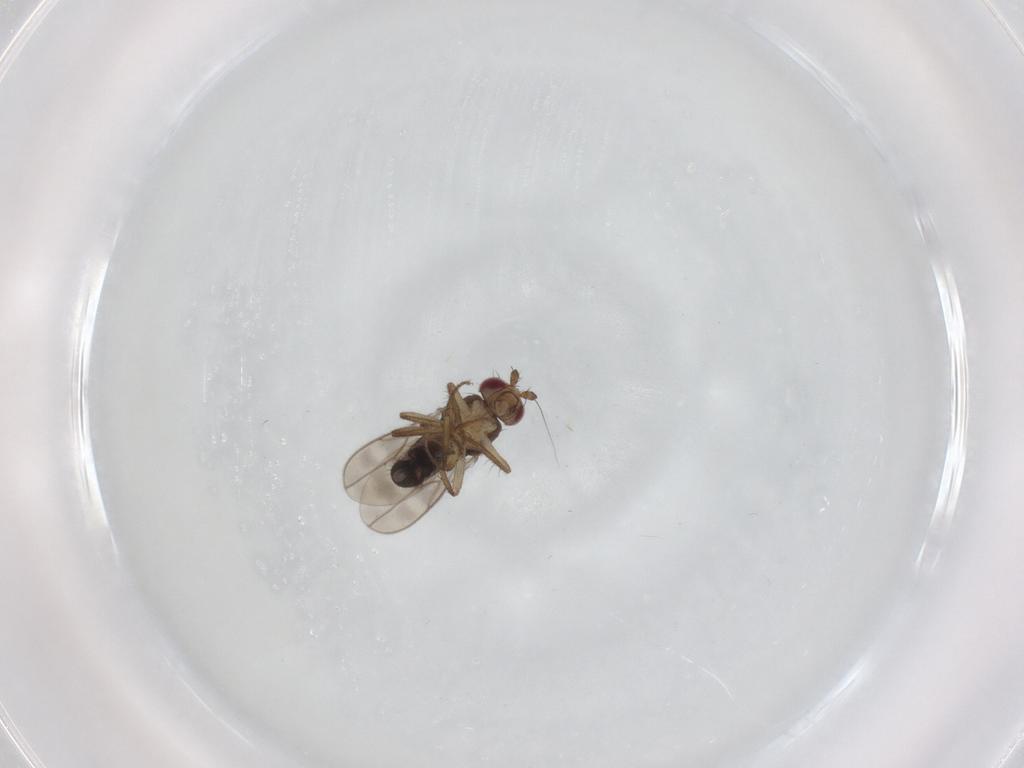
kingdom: Animalia
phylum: Arthropoda
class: Insecta
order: Diptera
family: Sphaeroceridae
